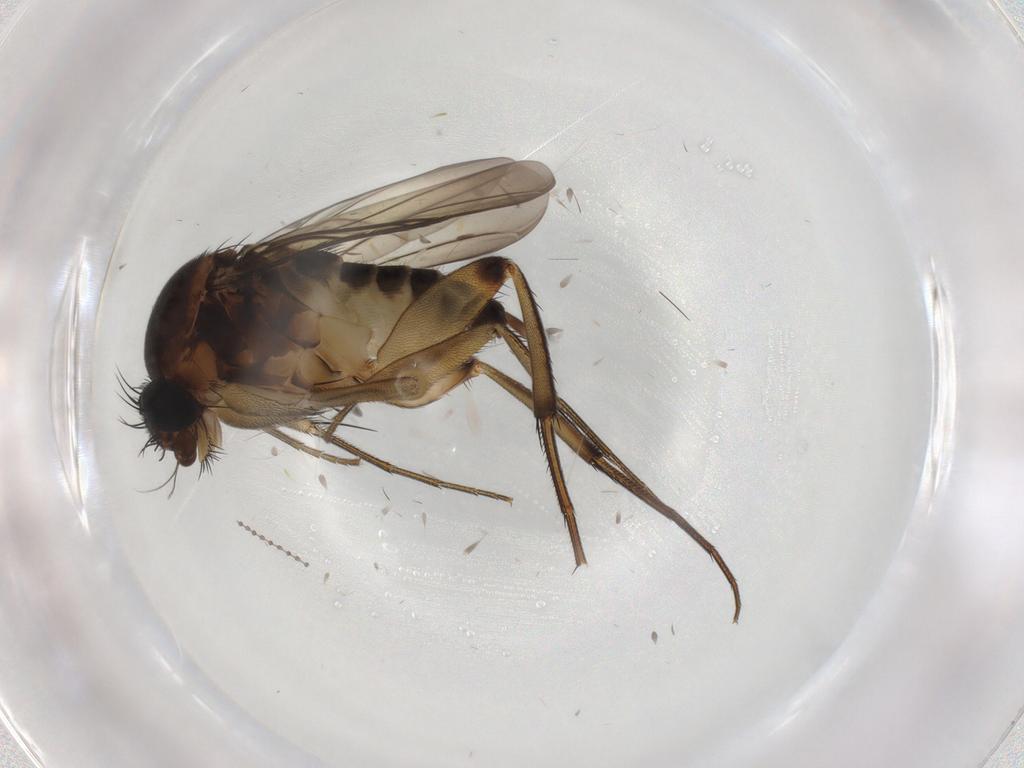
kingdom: Animalia
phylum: Arthropoda
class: Insecta
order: Diptera
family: Phoridae
